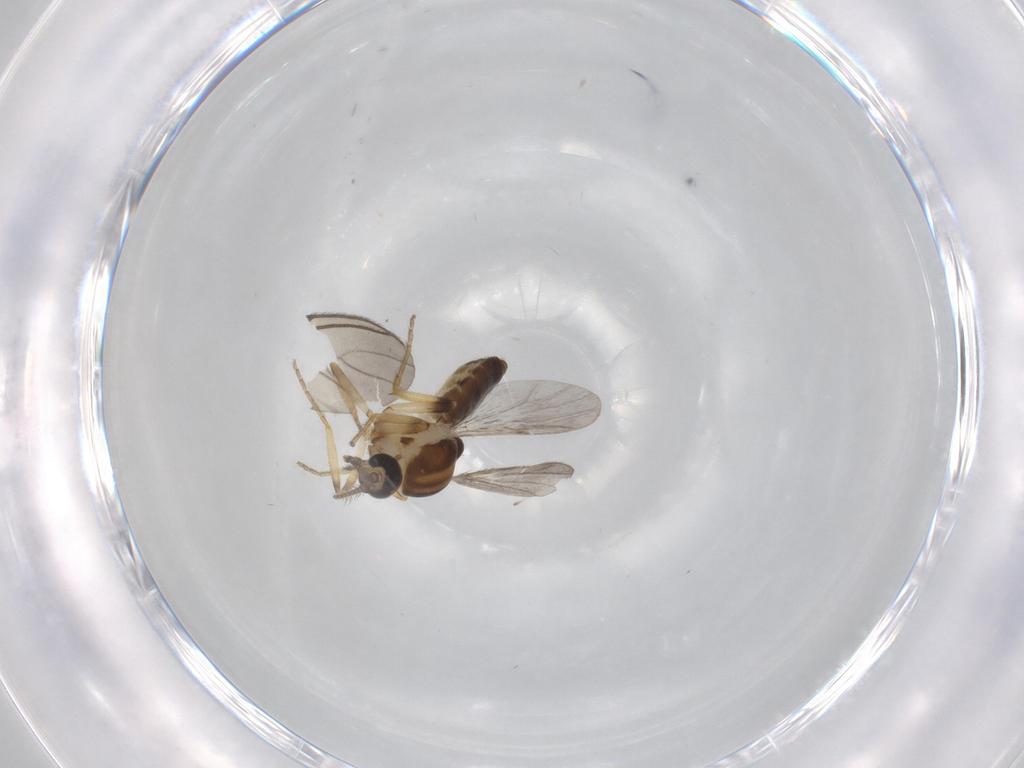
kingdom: Animalia
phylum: Arthropoda
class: Insecta
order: Diptera
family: Ceratopogonidae
